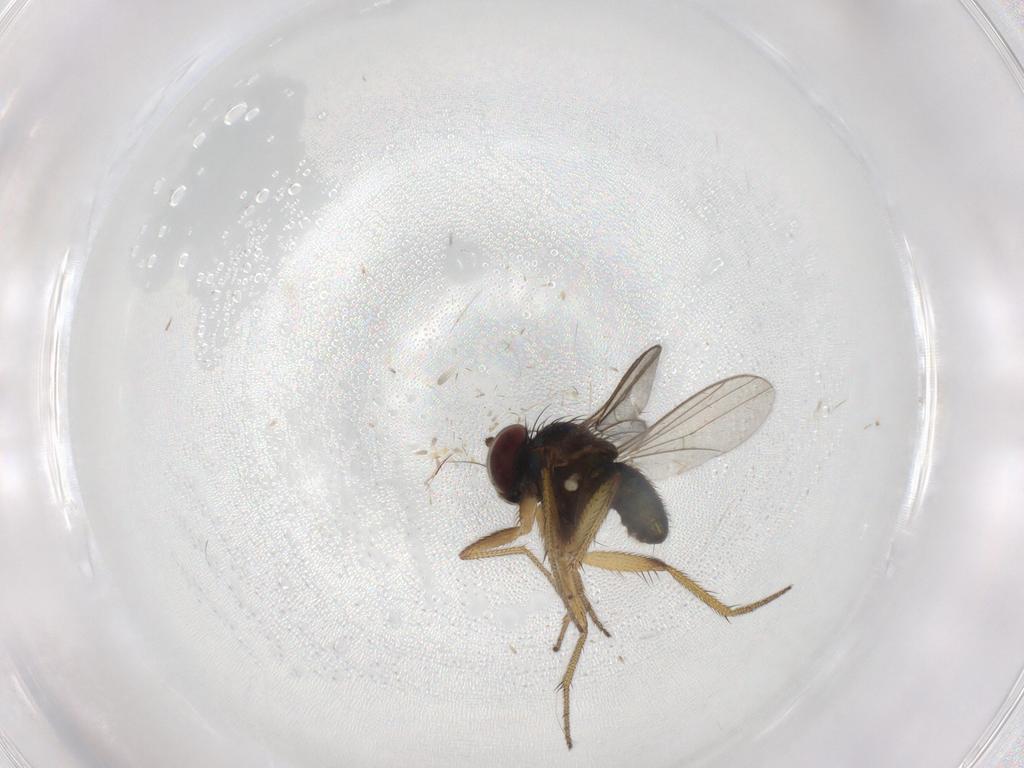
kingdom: Animalia
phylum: Arthropoda
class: Insecta
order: Diptera
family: Dolichopodidae
